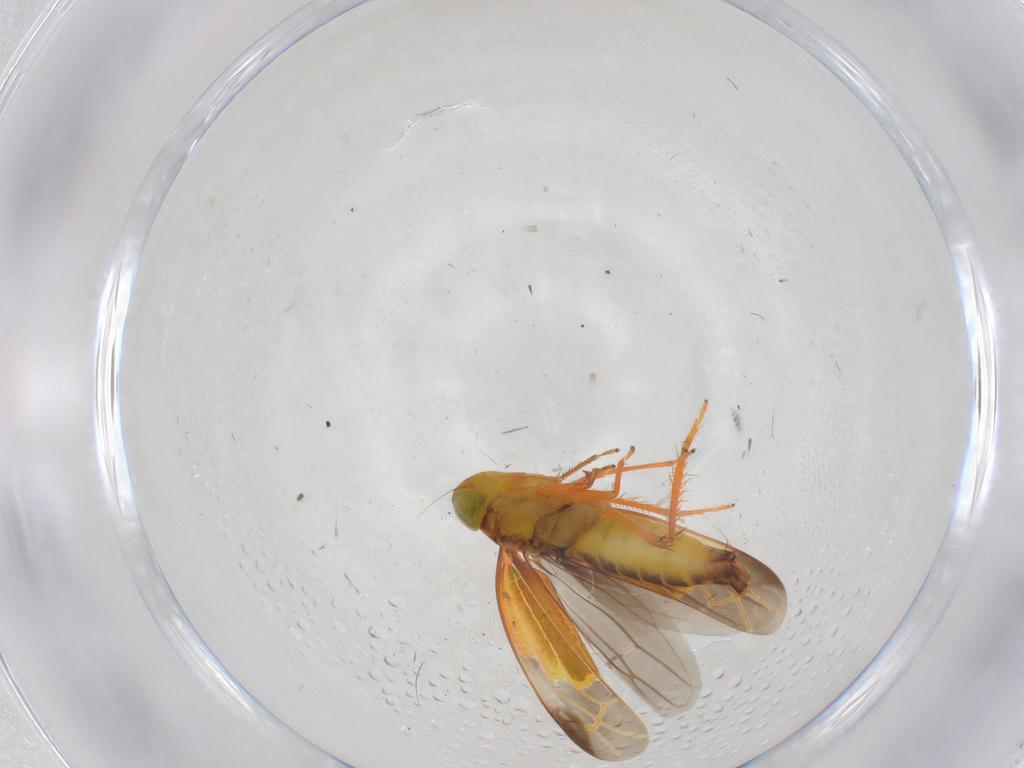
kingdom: Animalia
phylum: Arthropoda
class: Insecta
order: Hemiptera
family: Cicadellidae
